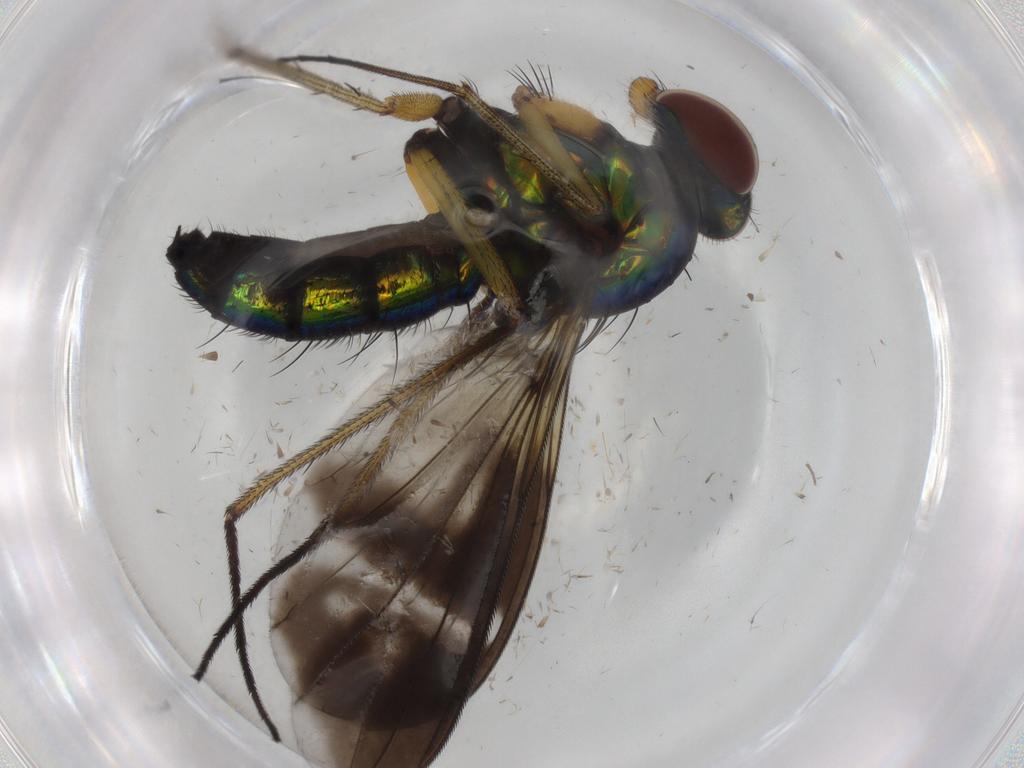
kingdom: Animalia
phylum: Arthropoda
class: Insecta
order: Diptera
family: Dolichopodidae
